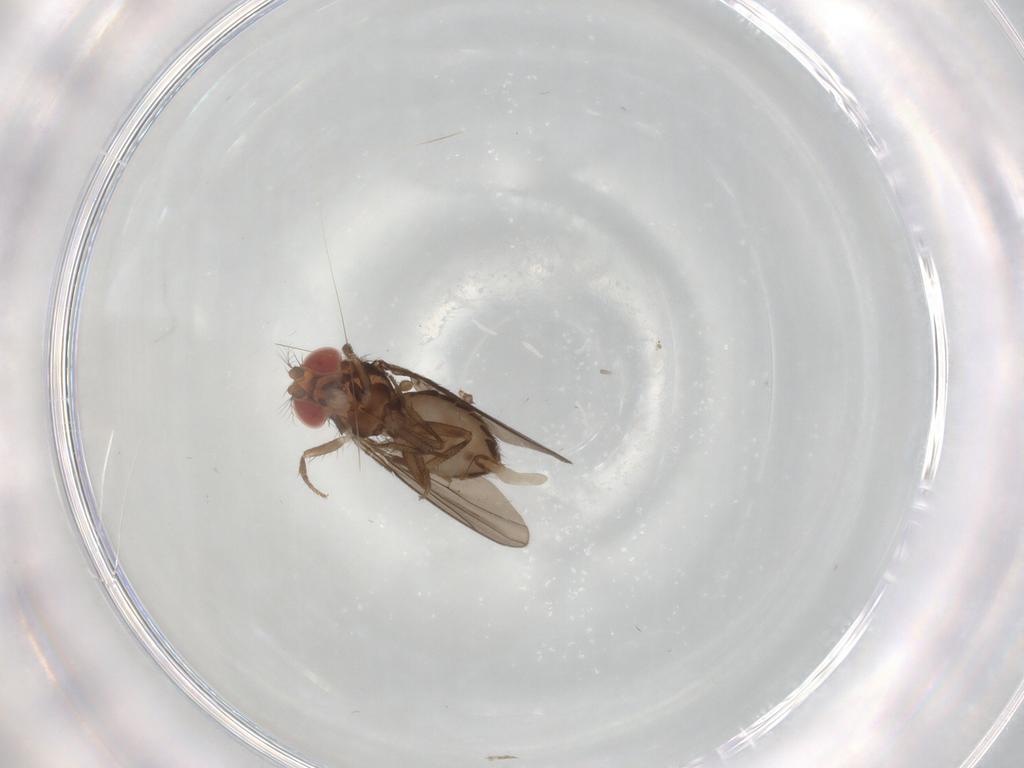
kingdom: Animalia
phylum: Arthropoda
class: Insecta
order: Diptera
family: Drosophilidae
